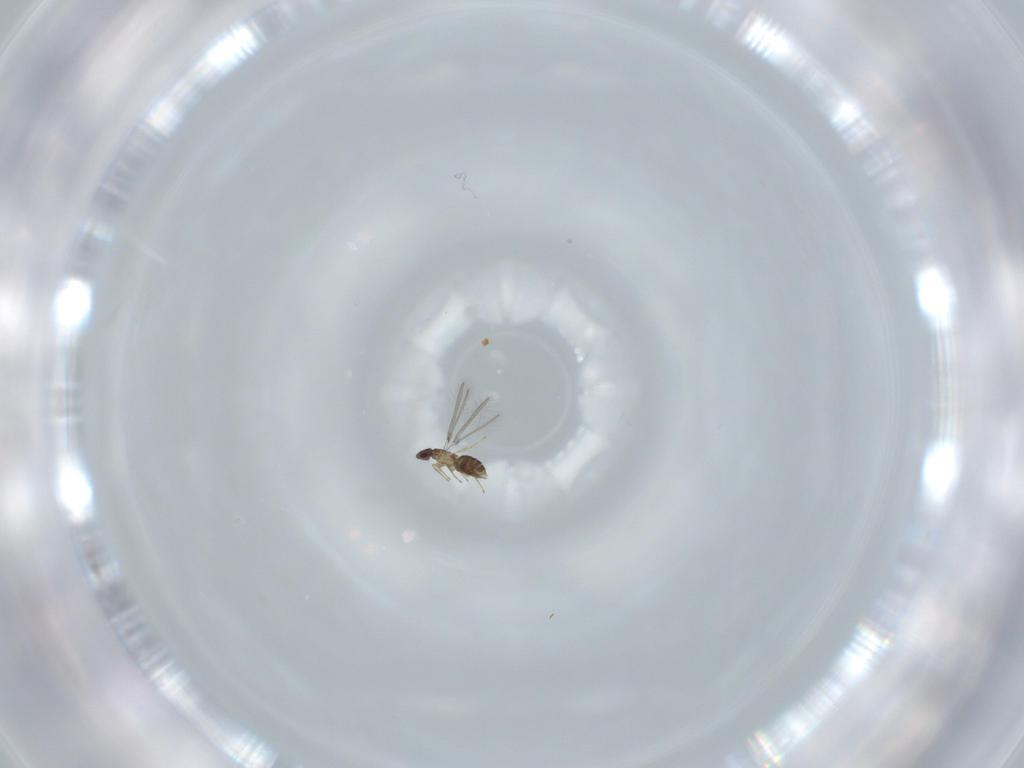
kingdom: Animalia
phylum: Arthropoda
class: Insecta
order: Hymenoptera
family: Mymaridae
